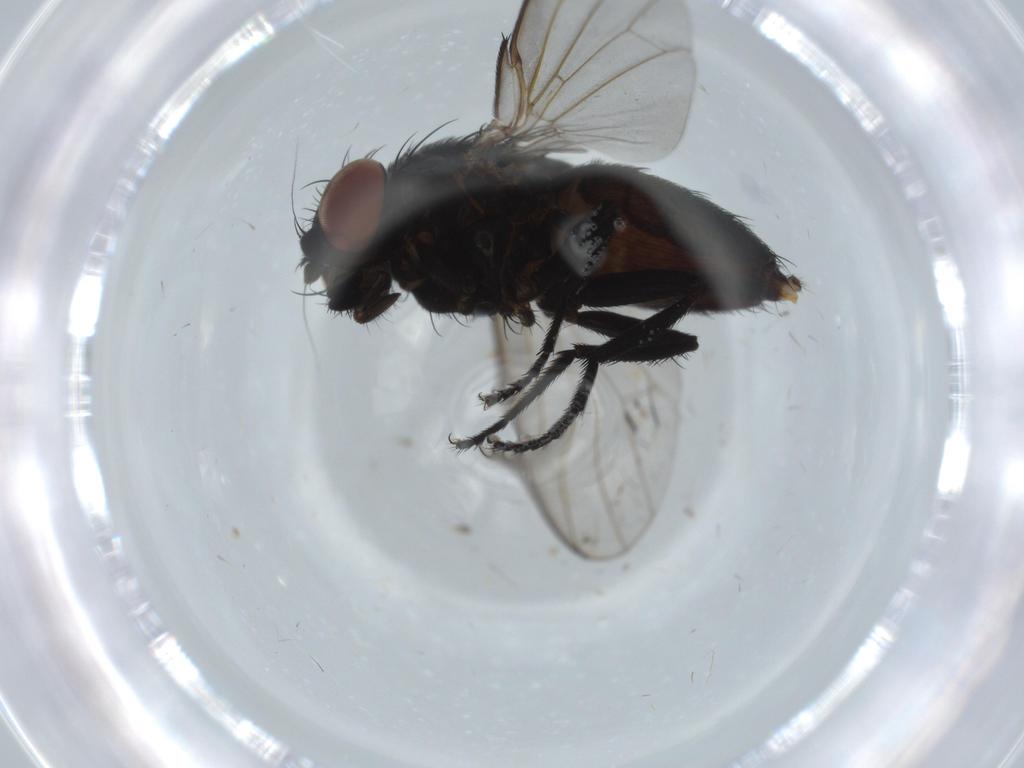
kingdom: Animalia
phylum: Arthropoda
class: Insecta
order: Diptera
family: Milichiidae
